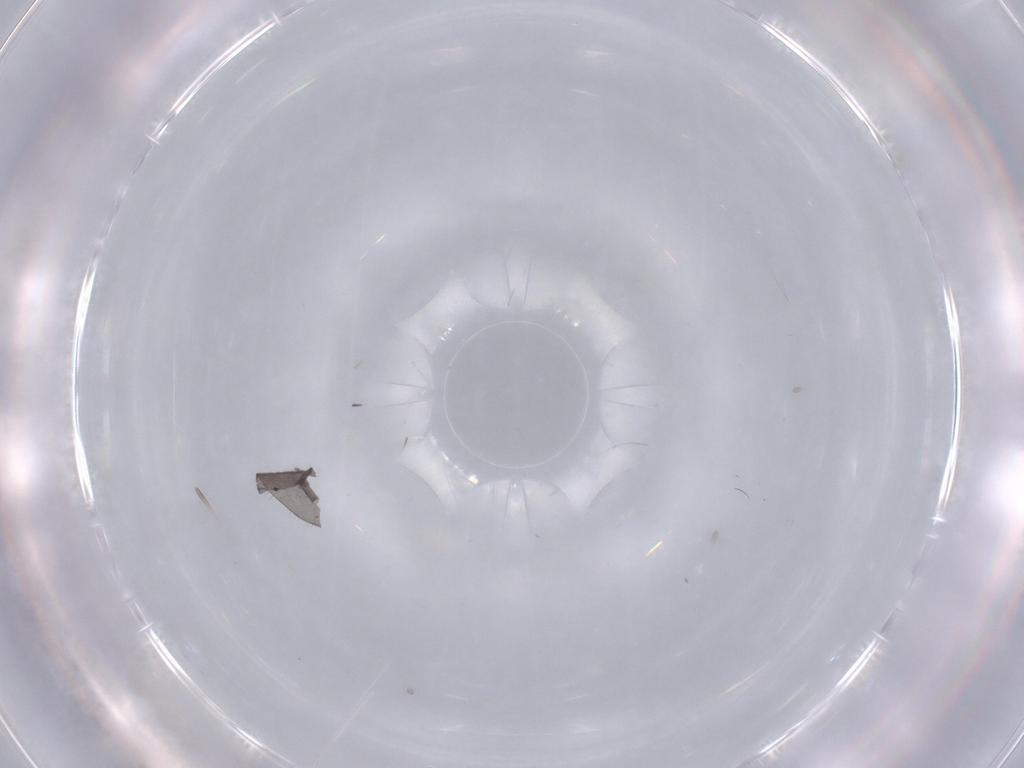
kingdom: Animalia
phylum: Arthropoda
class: Insecta
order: Diptera
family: Sciaridae
